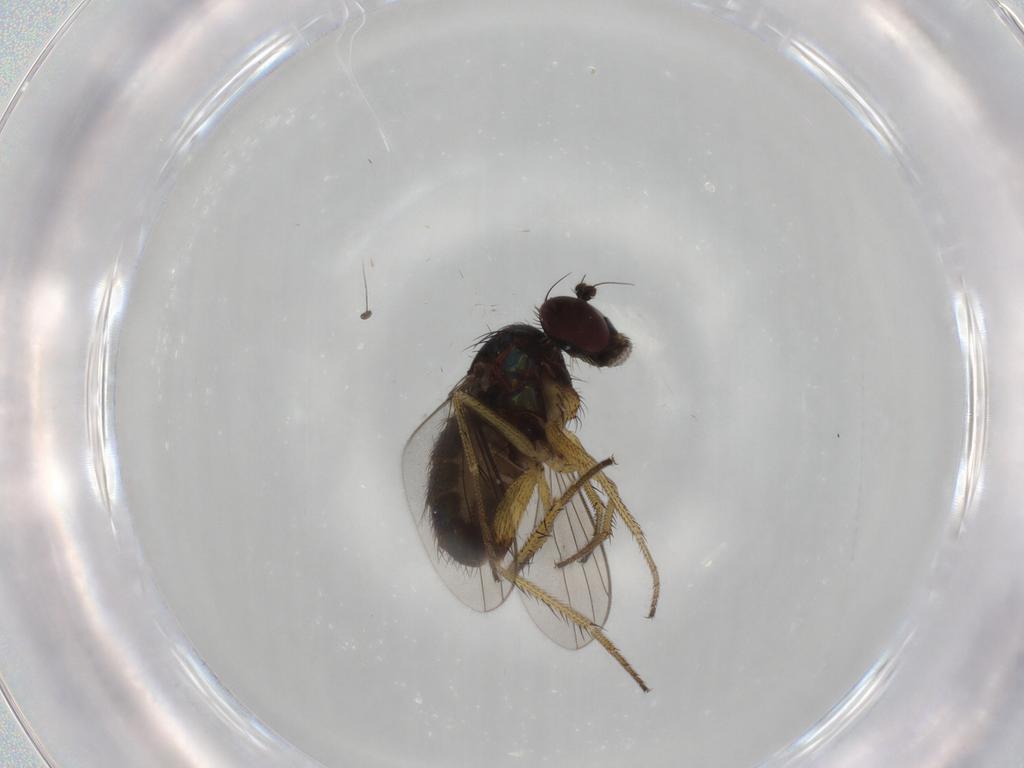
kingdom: Animalia
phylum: Arthropoda
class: Insecta
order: Diptera
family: Dolichopodidae
